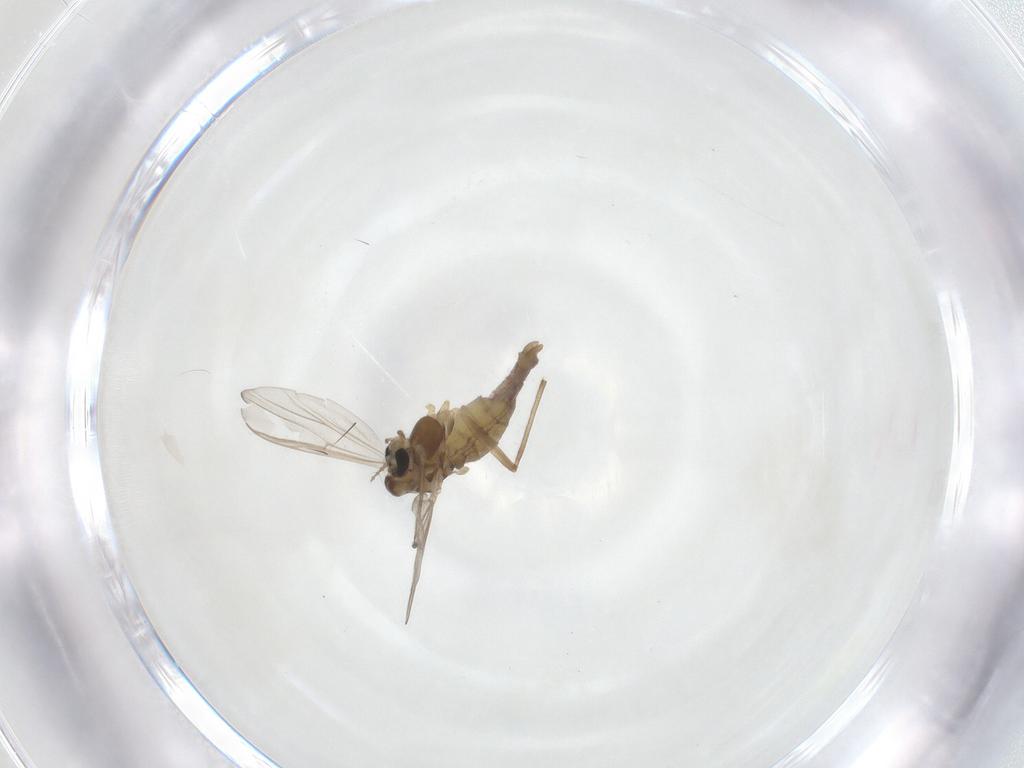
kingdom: Animalia
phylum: Arthropoda
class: Insecta
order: Diptera
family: Chironomidae
